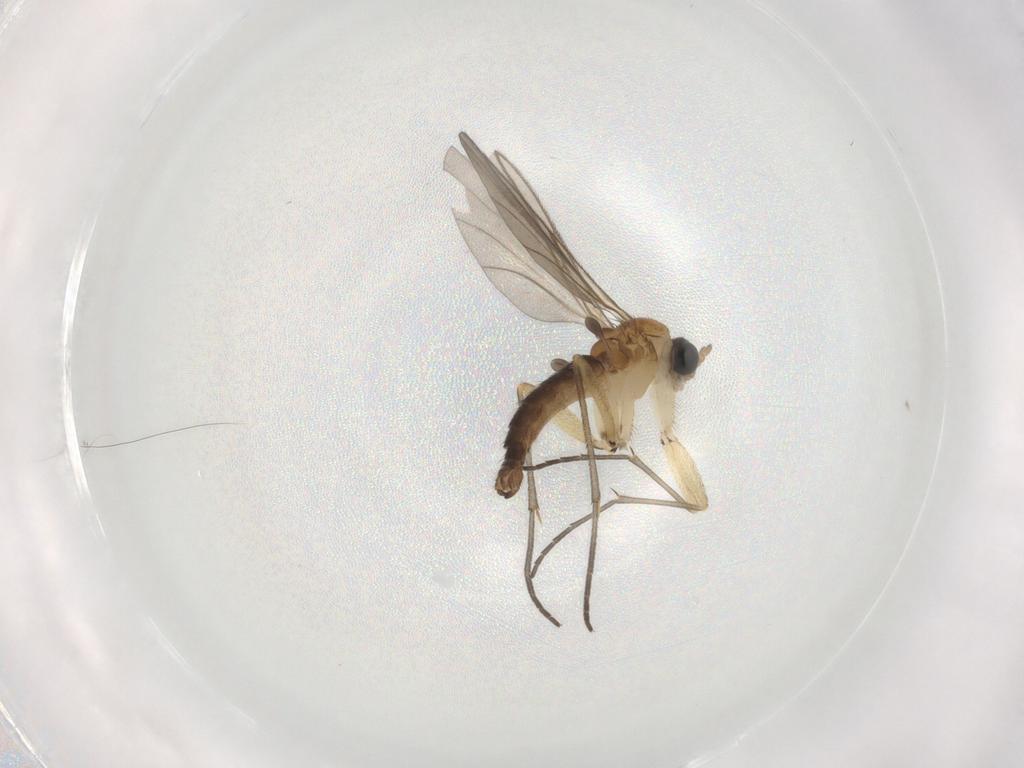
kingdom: Animalia
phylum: Arthropoda
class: Insecta
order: Diptera
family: Sciaridae
